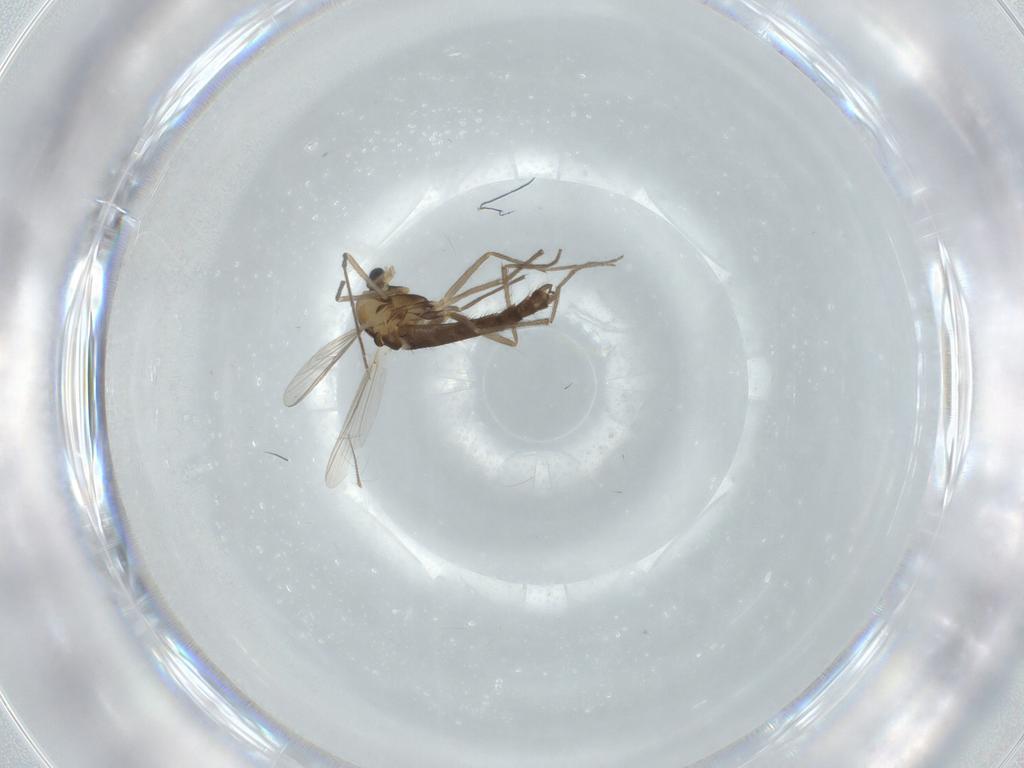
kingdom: Animalia
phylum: Arthropoda
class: Insecta
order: Diptera
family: Chironomidae
